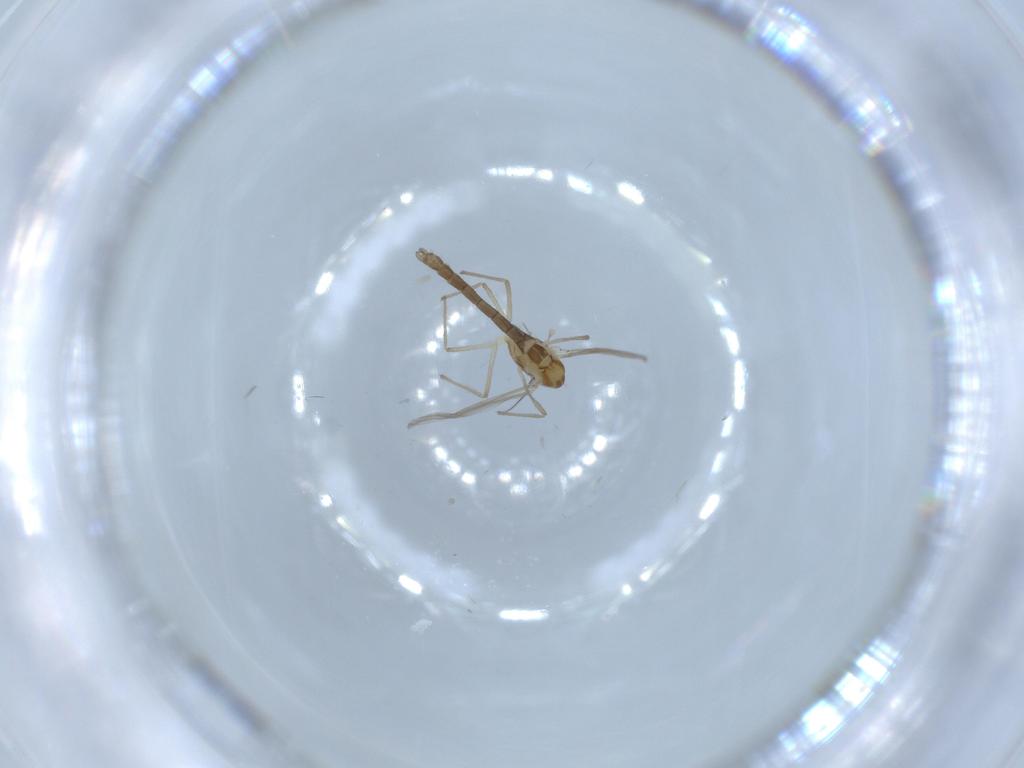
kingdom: Animalia
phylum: Arthropoda
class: Insecta
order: Diptera
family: Chironomidae
